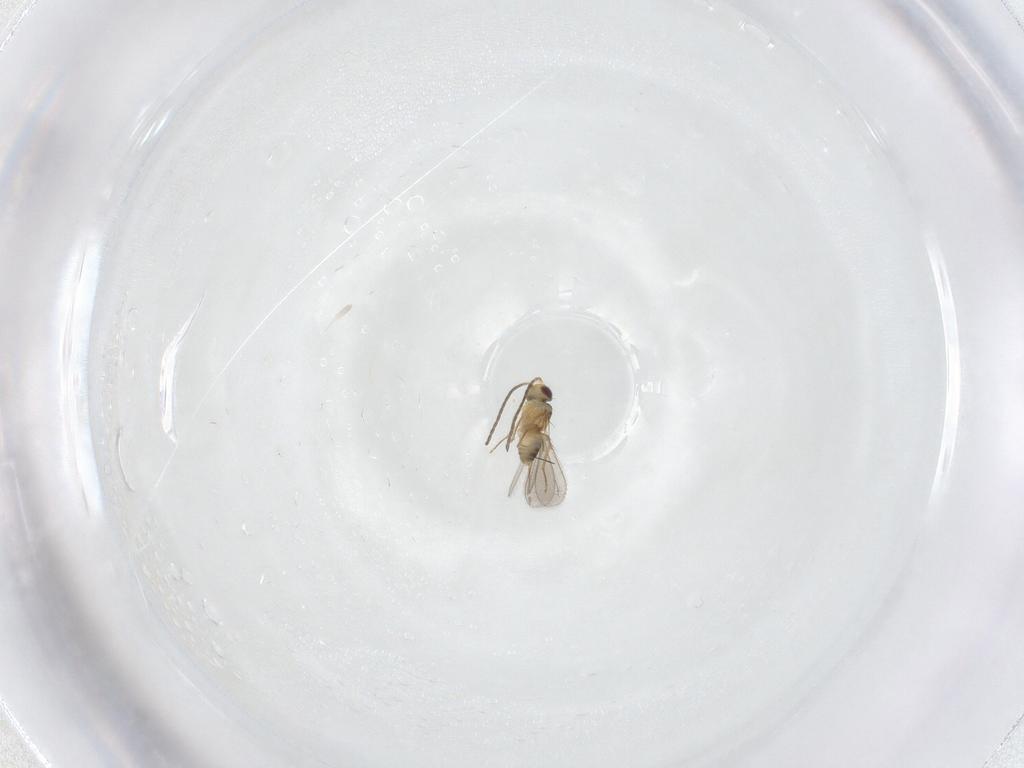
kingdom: Animalia
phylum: Arthropoda
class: Insecta
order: Hymenoptera
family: Mymaridae
